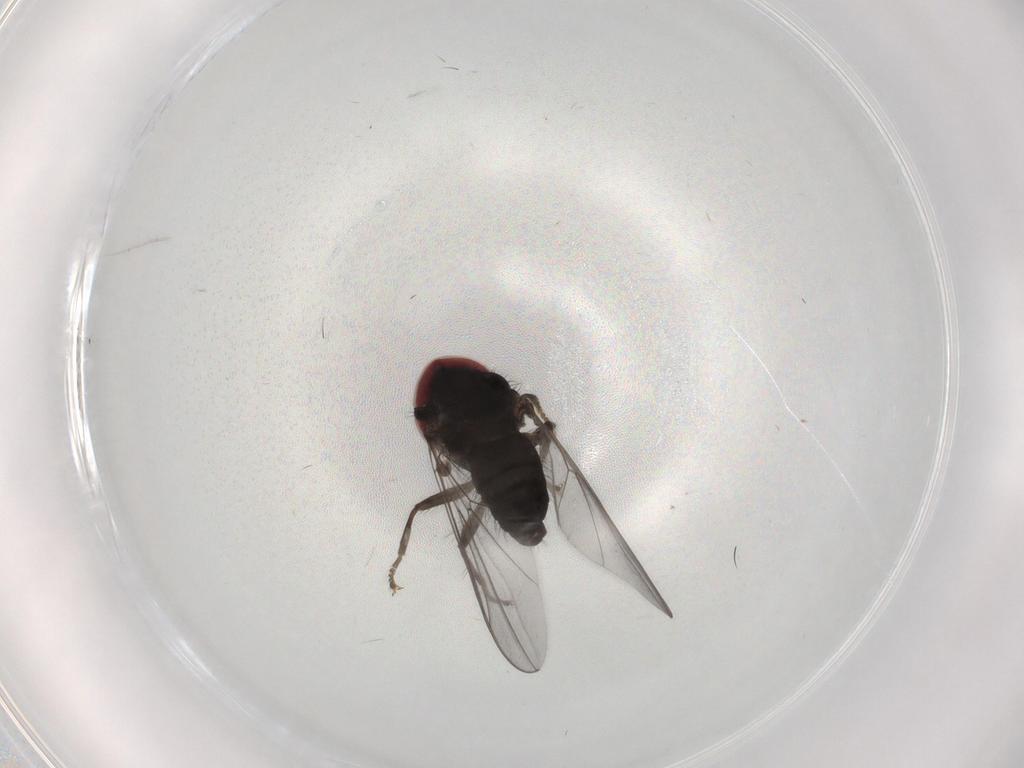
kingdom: Animalia
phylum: Arthropoda
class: Insecta
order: Diptera
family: Pipunculidae
